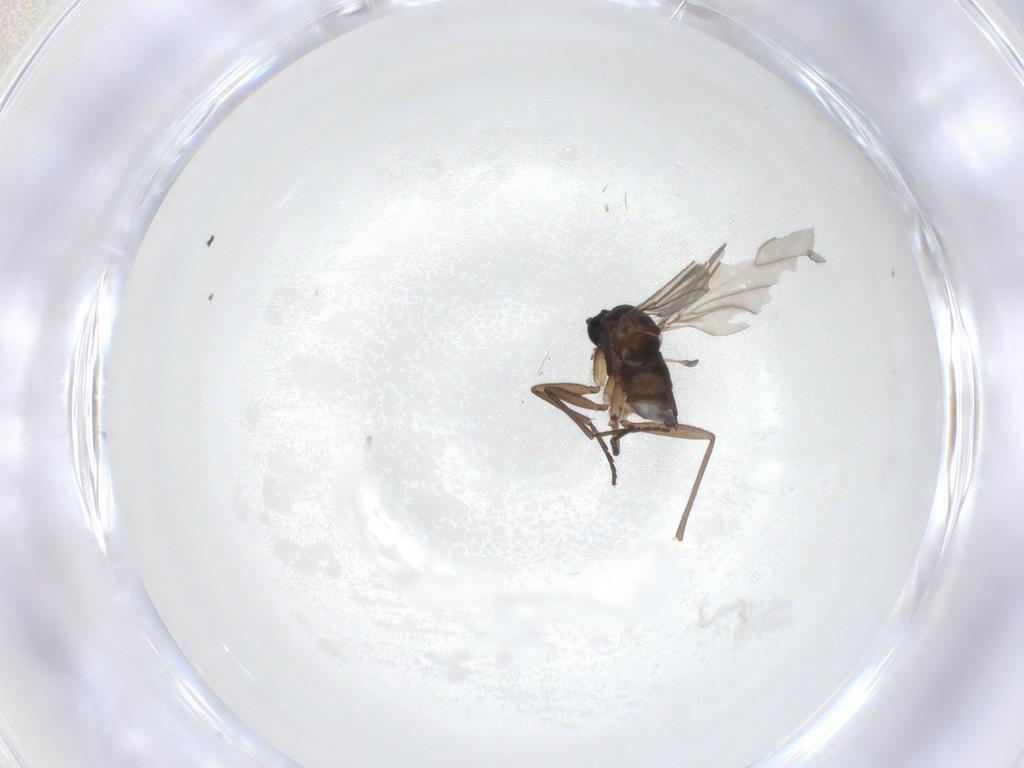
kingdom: Animalia
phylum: Arthropoda
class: Insecta
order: Diptera
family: Sciaridae
